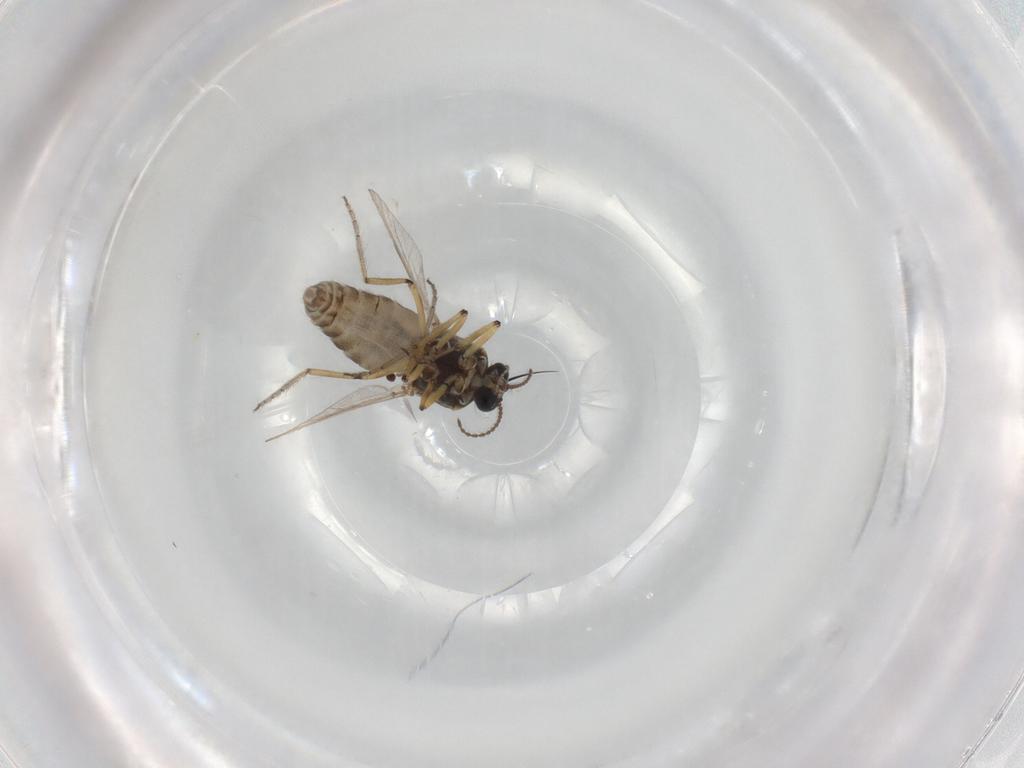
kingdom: Animalia
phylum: Arthropoda
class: Insecta
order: Diptera
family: Ceratopogonidae
